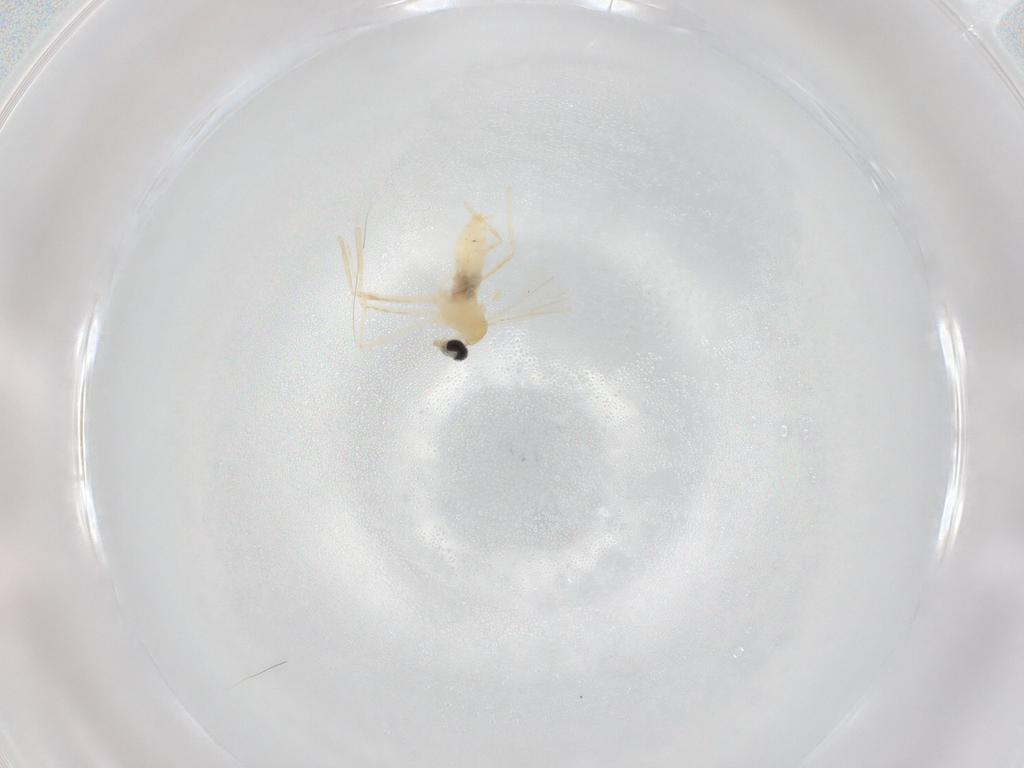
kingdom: Animalia
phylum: Arthropoda
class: Insecta
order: Diptera
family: Cecidomyiidae
